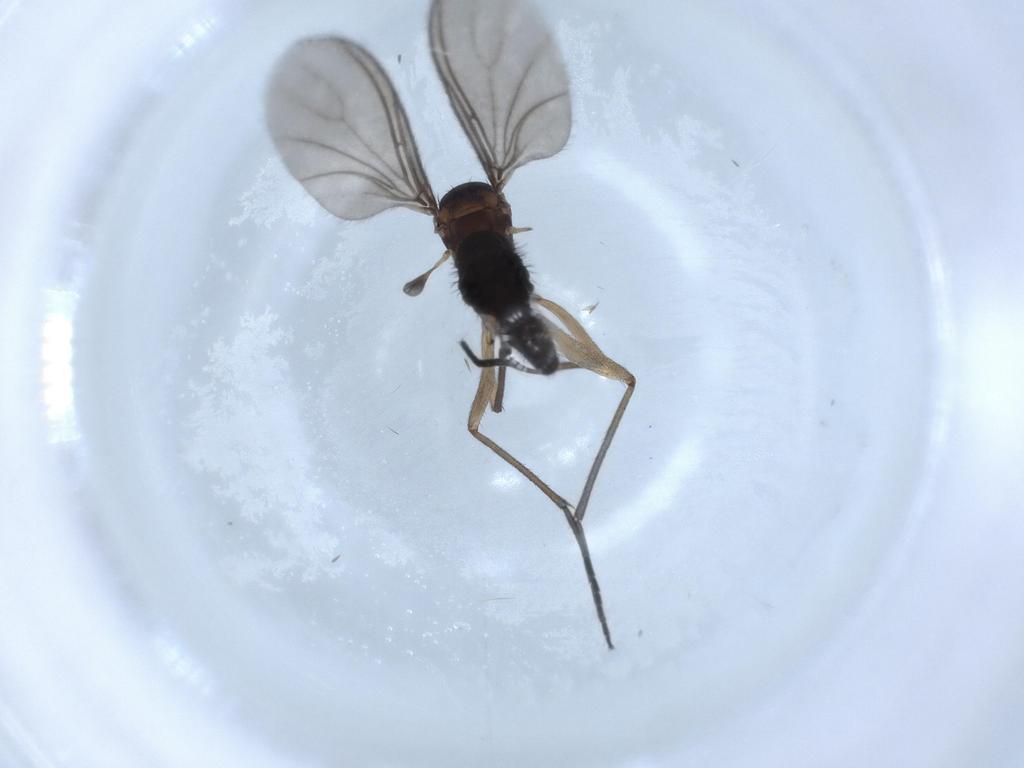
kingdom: Animalia
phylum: Arthropoda
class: Insecta
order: Diptera
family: Sciaridae
